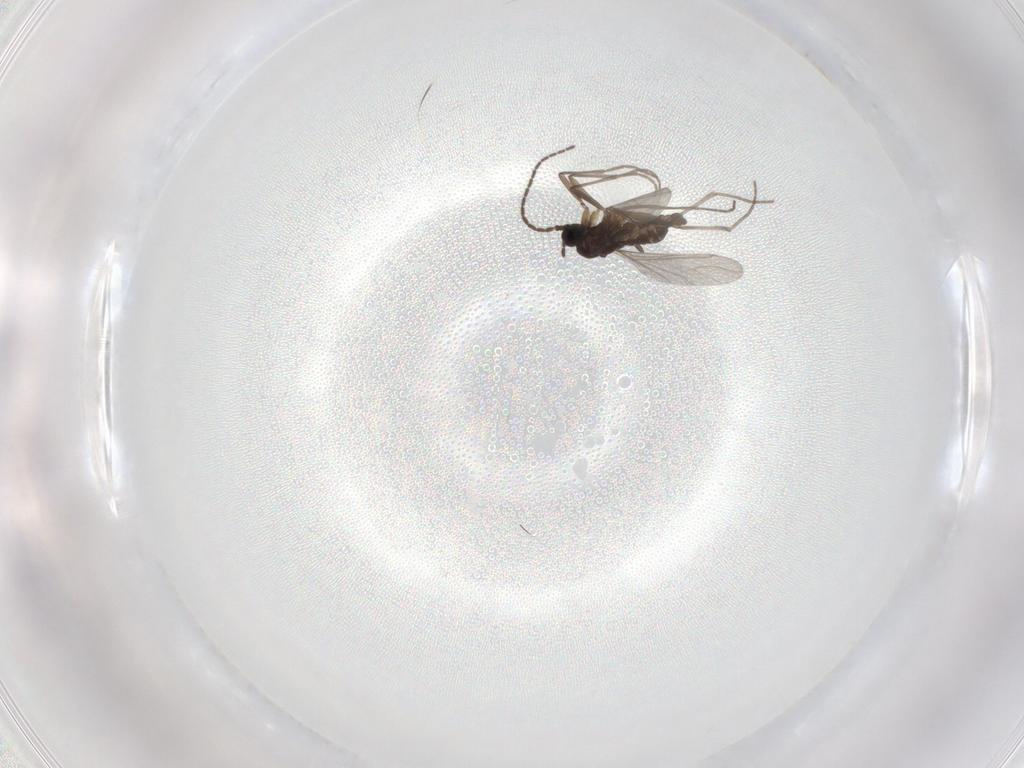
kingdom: Animalia
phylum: Arthropoda
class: Insecta
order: Diptera
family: Sciaridae
